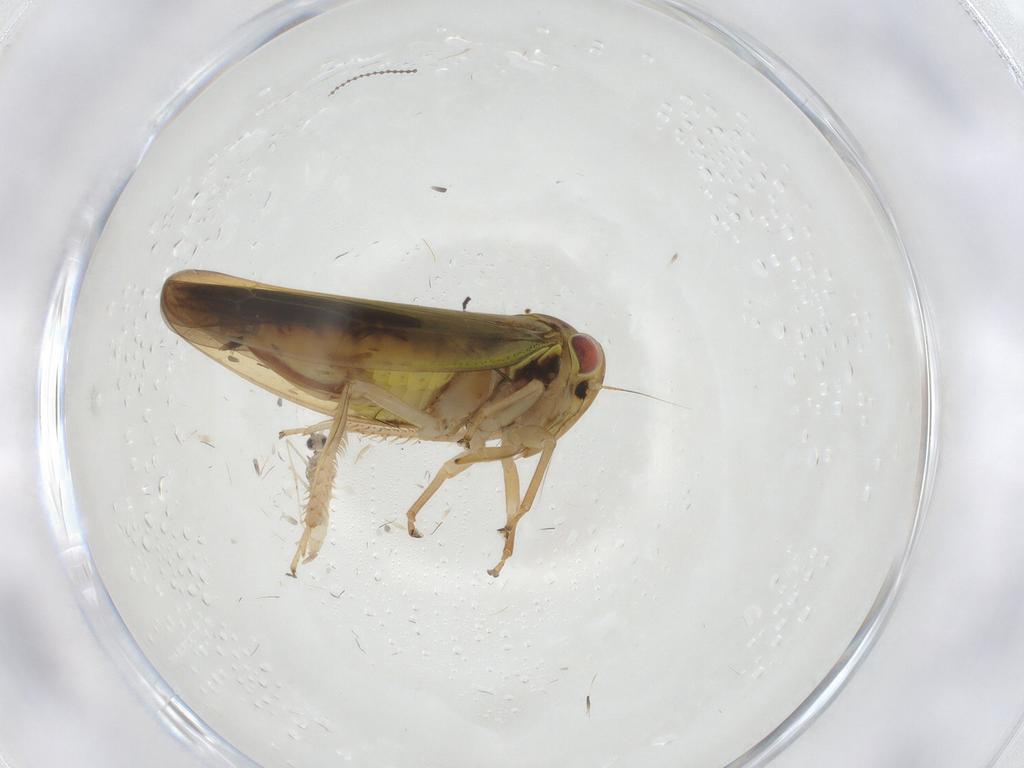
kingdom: Animalia
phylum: Arthropoda
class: Insecta
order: Hemiptera
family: Cicadellidae
